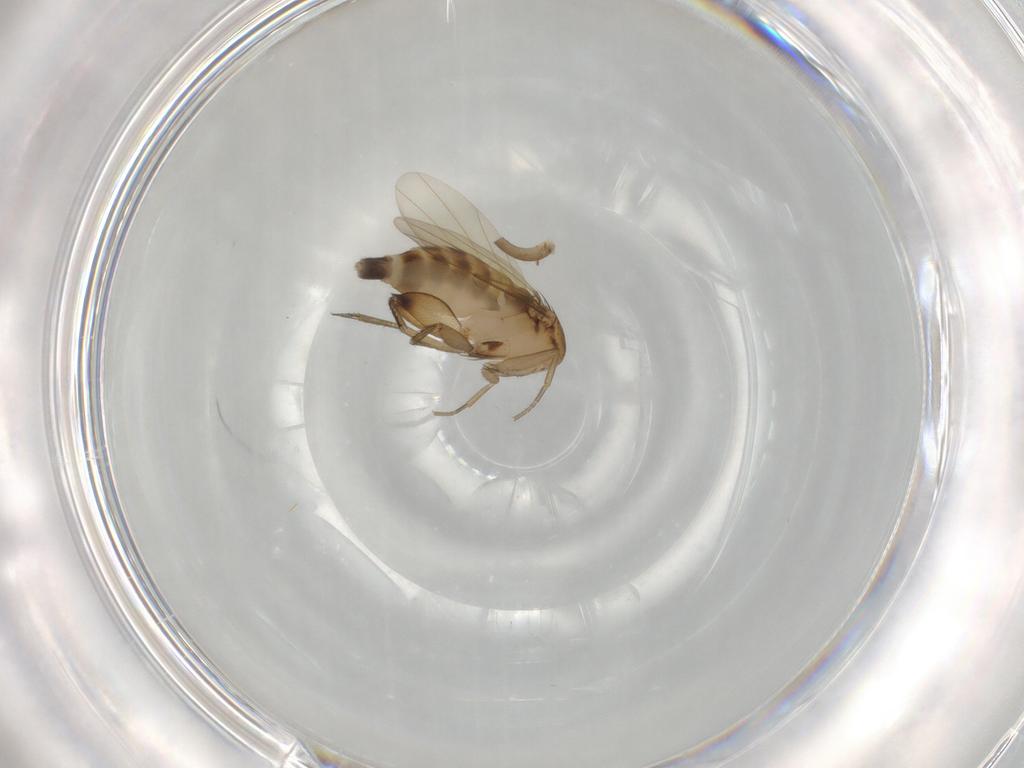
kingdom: Animalia
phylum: Arthropoda
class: Insecta
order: Diptera
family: Phoridae
